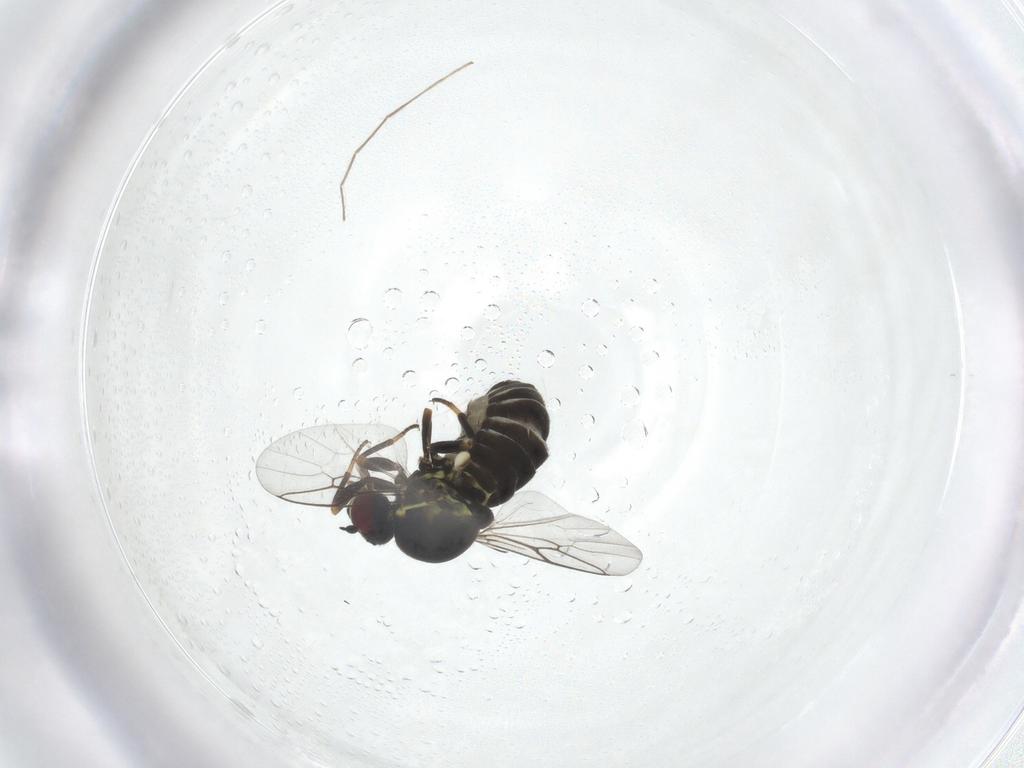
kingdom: Animalia
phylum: Arthropoda
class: Insecta
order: Diptera
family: Mythicomyiidae
